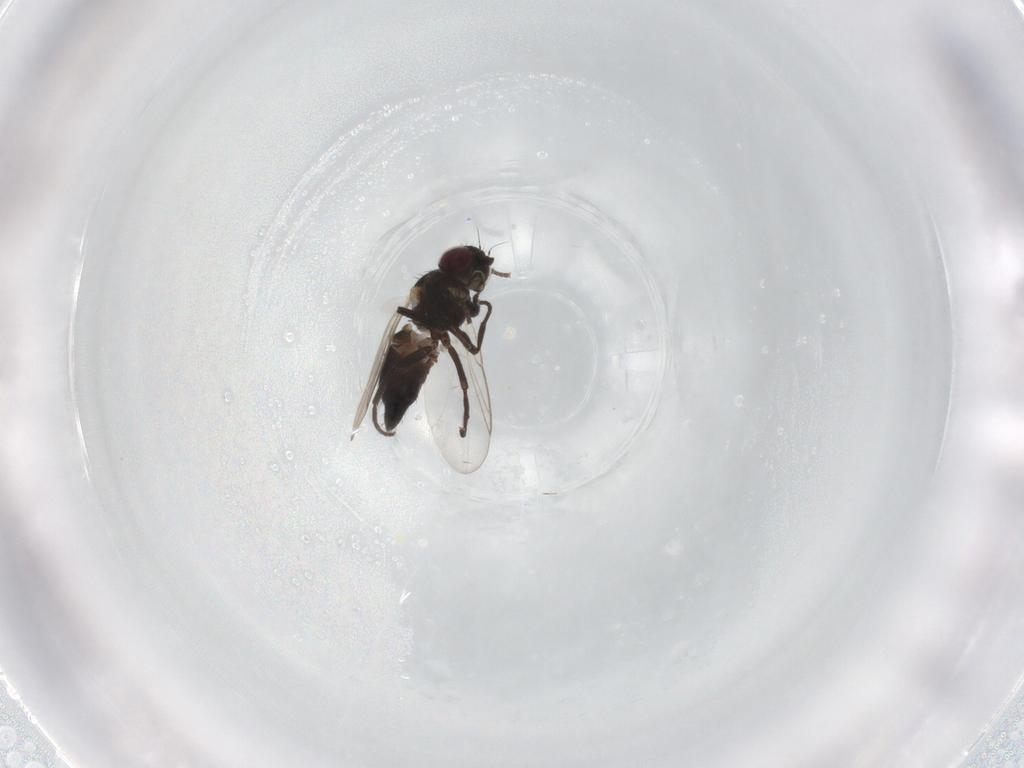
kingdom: Animalia
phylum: Arthropoda
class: Insecta
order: Diptera
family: Agromyzidae
